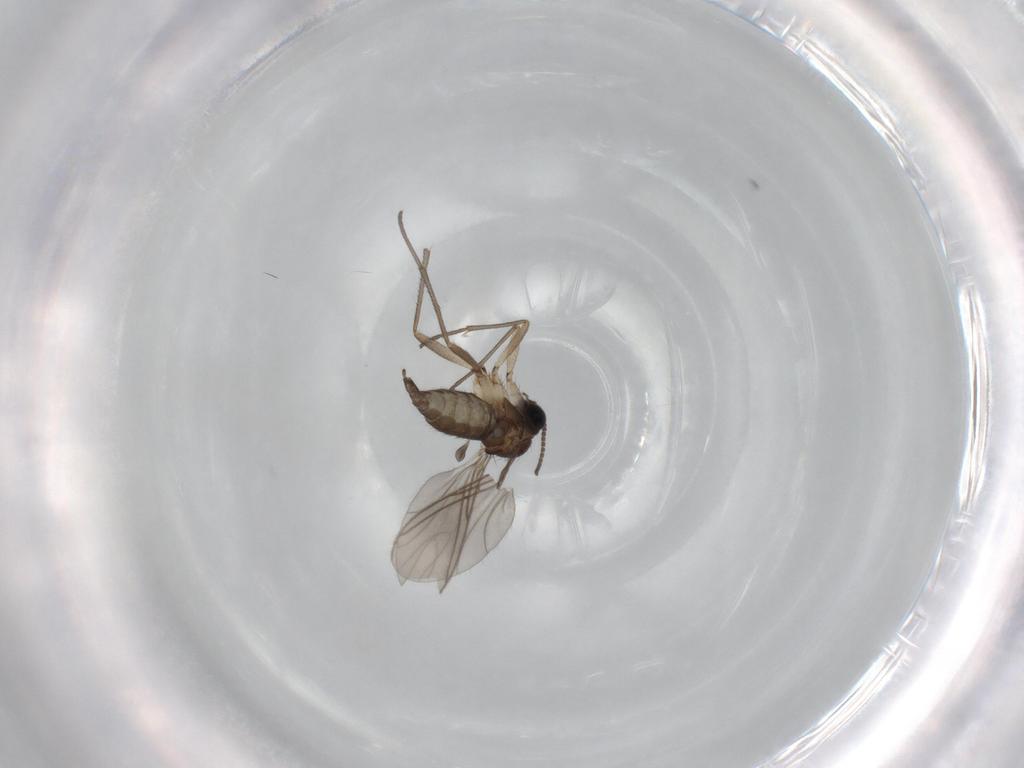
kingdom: Animalia
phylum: Arthropoda
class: Insecta
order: Diptera
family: Sciaridae
